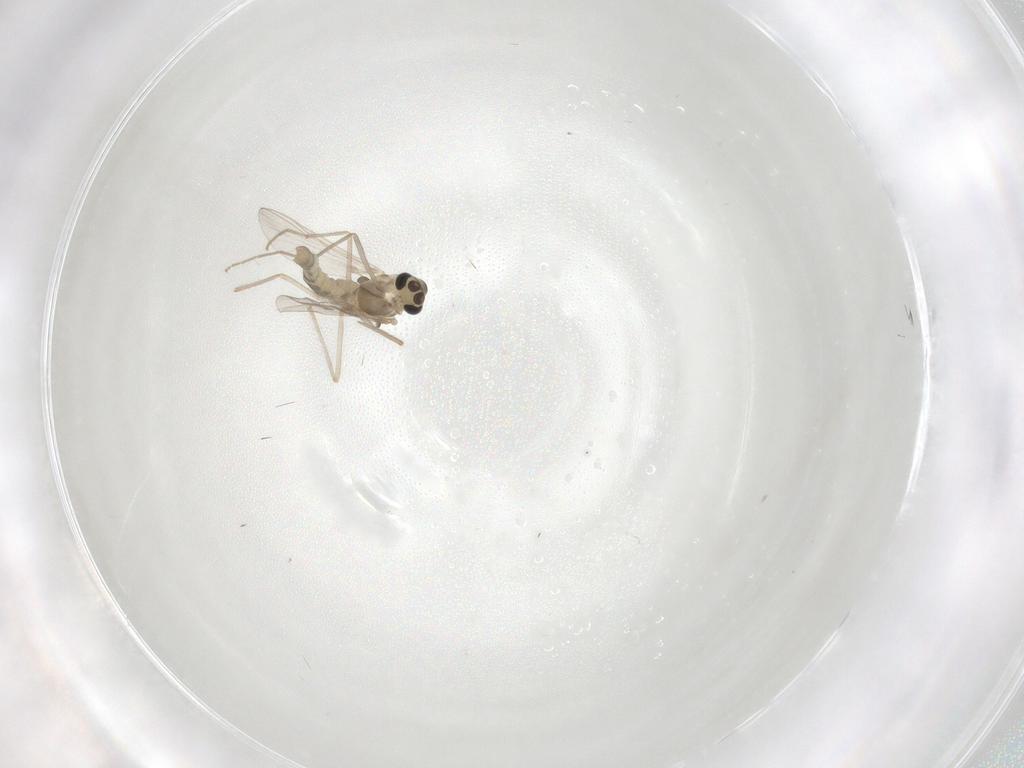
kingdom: Animalia
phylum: Arthropoda
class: Insecta
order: Diptera
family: Chironomidae
